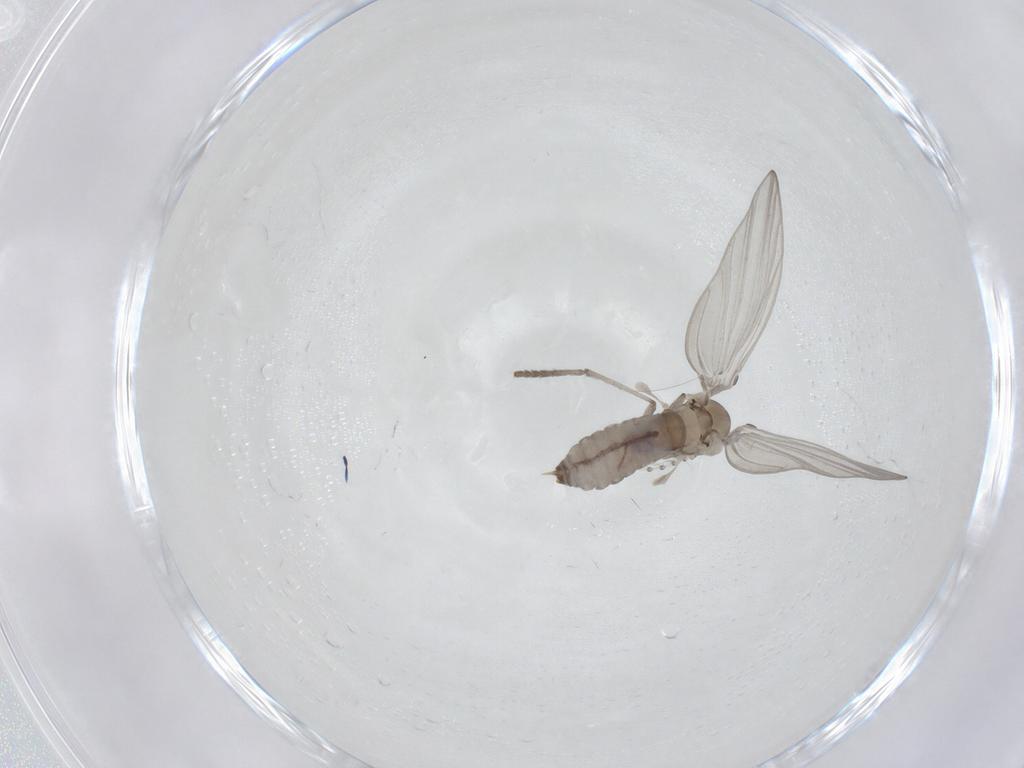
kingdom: Animalia
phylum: Arthropoda
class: Insecta
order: Diptera
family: Psychodidae
